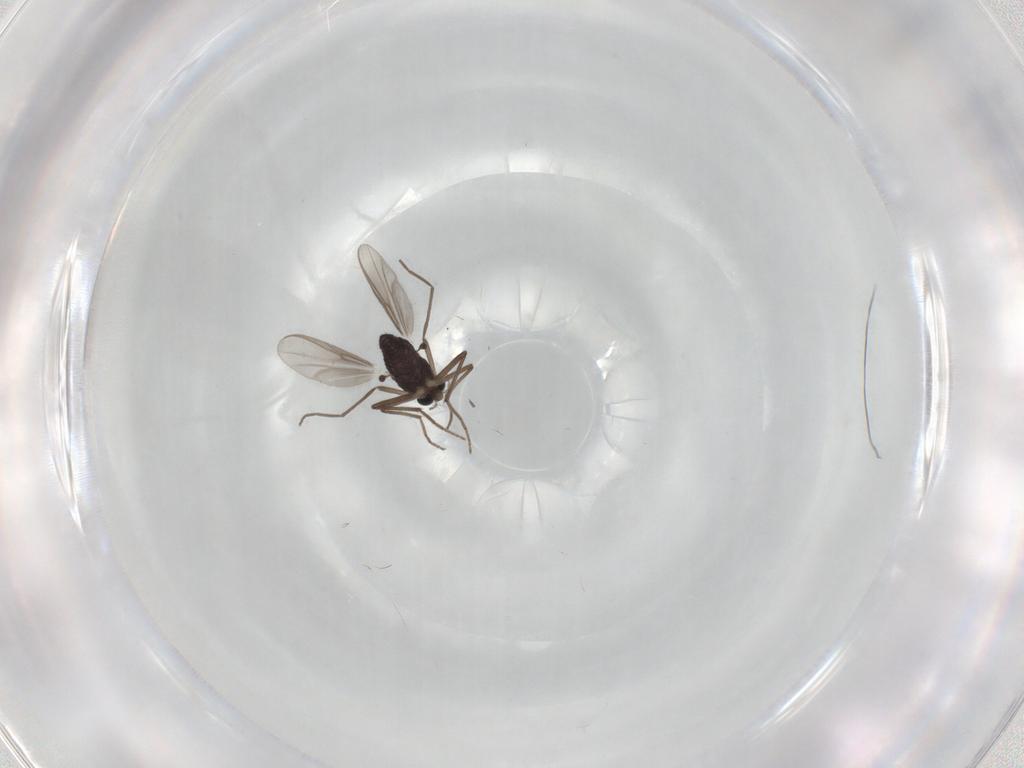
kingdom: Animalia
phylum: Arthropoda
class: Insecta
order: Diptera
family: Chironomidae
